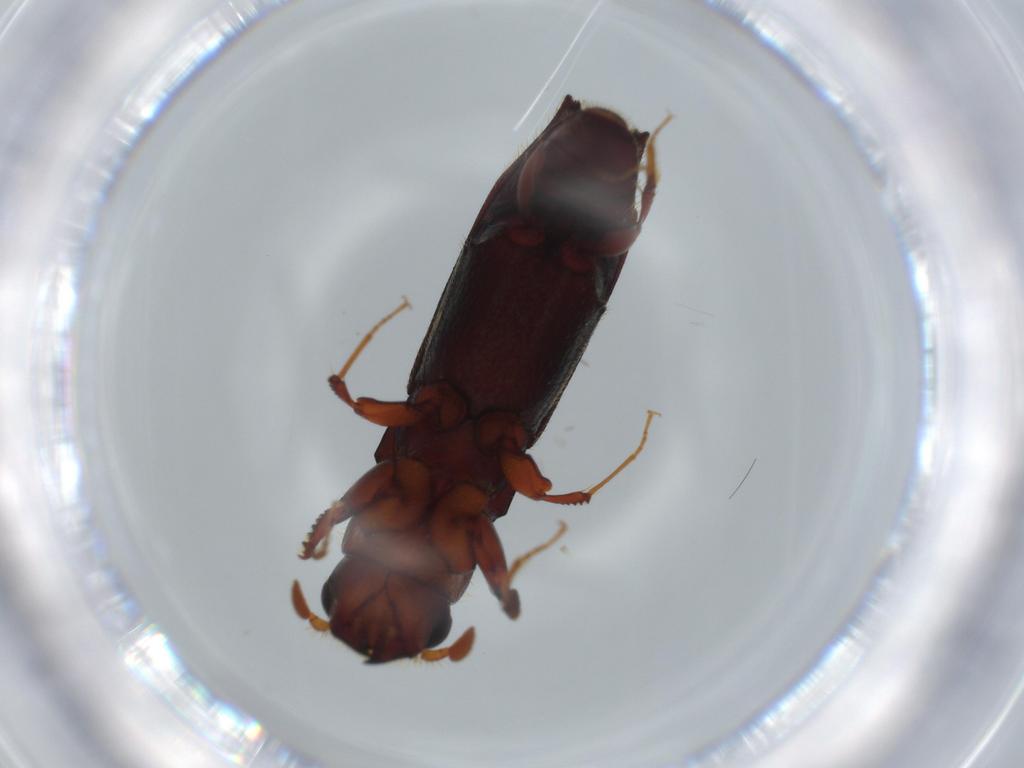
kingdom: Animalia
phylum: Arthropoda
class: Insecta
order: Coleoptera
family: Curculionidae
